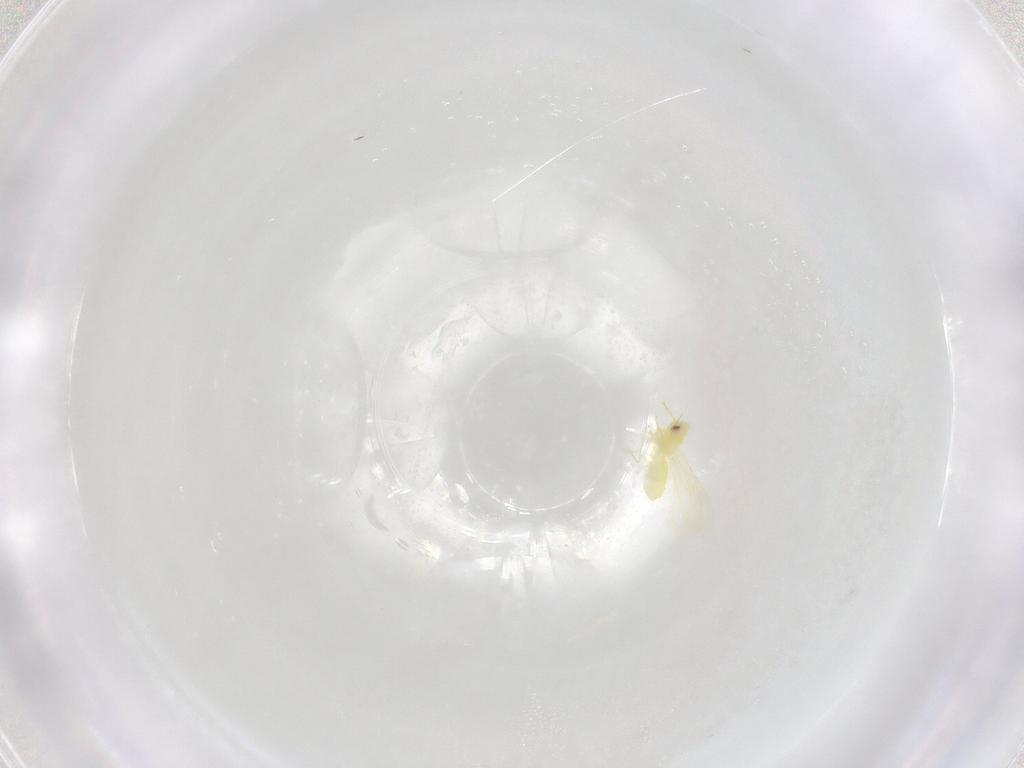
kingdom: Animalia
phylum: Arthropoda
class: Insecta
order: Hemiptera
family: Aleyrodidae
